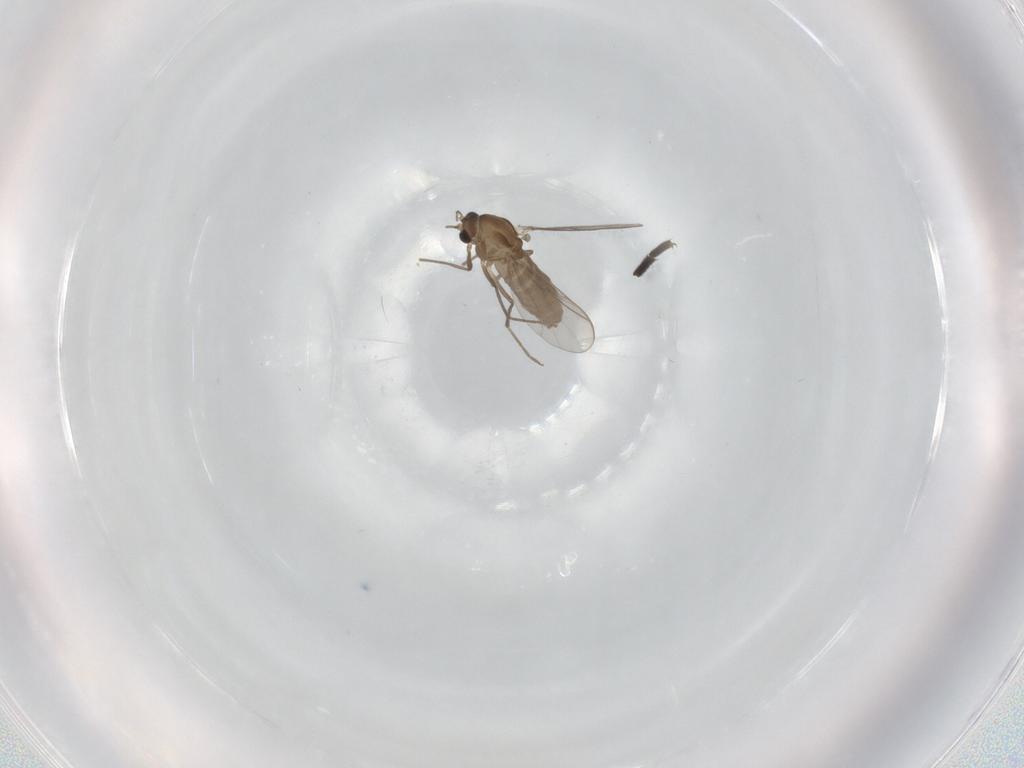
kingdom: Animalia
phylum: Arthropoda
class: Insecta
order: Diptera
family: Chironomidae
